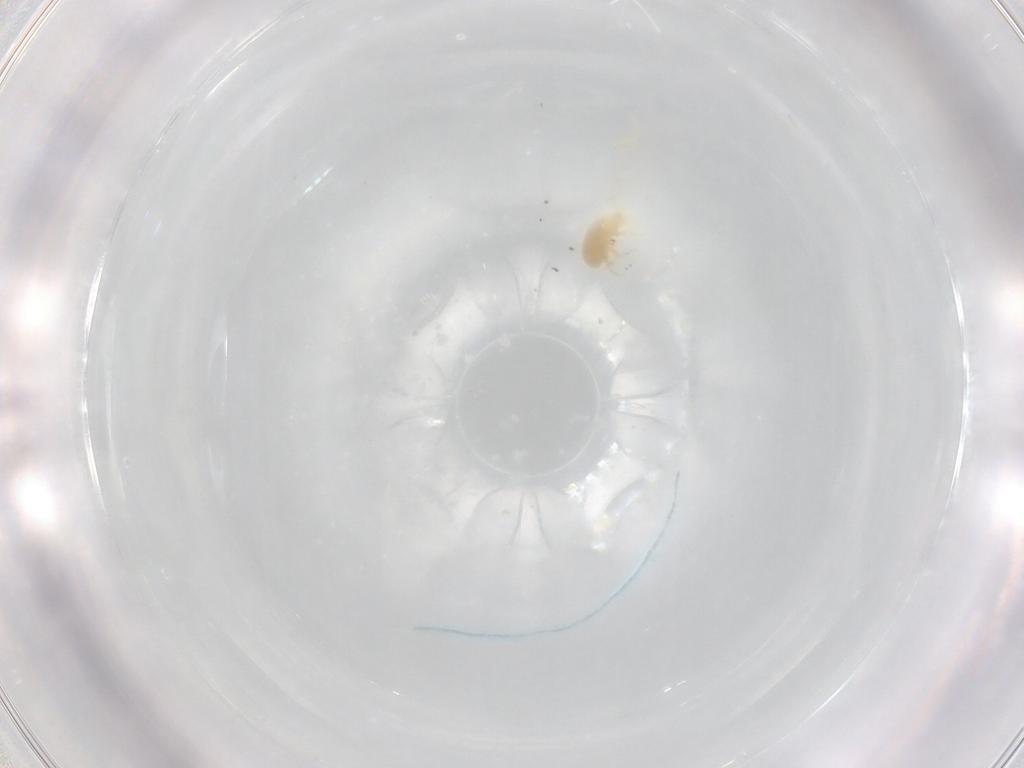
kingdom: Animalia
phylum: Arthropoda
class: Arachnida
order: Trombidiformes
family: Rhagidiidae
